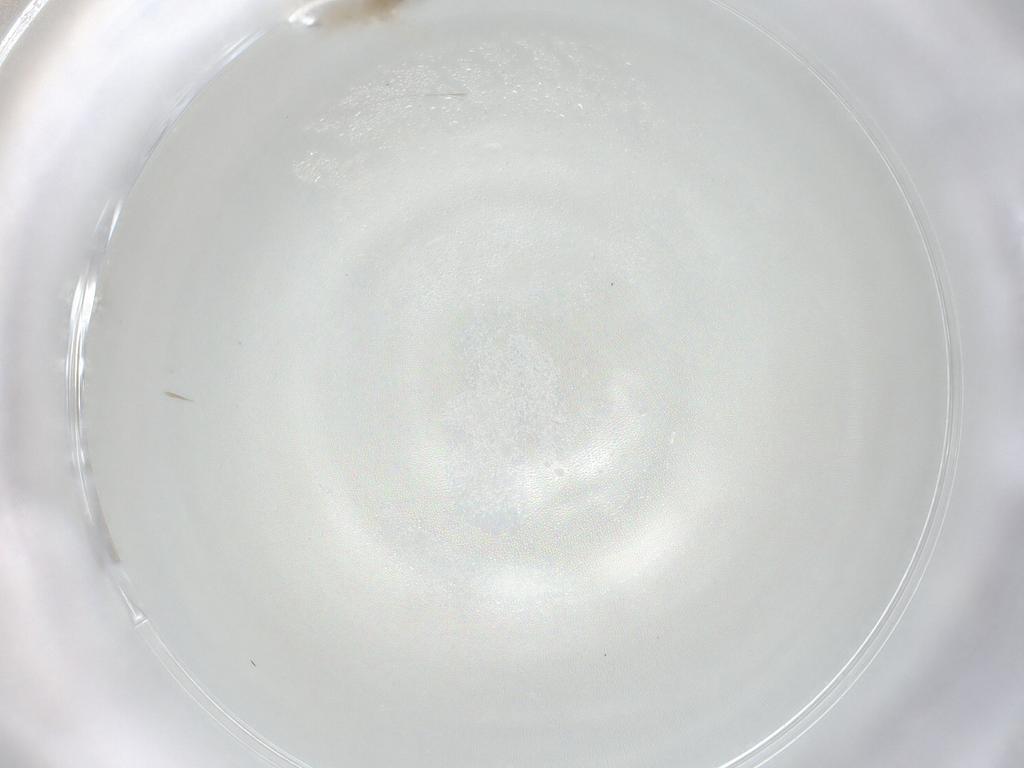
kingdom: Animalia
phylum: Arthropoda
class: Insecta
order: Diptera
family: Cecidomyiidae
